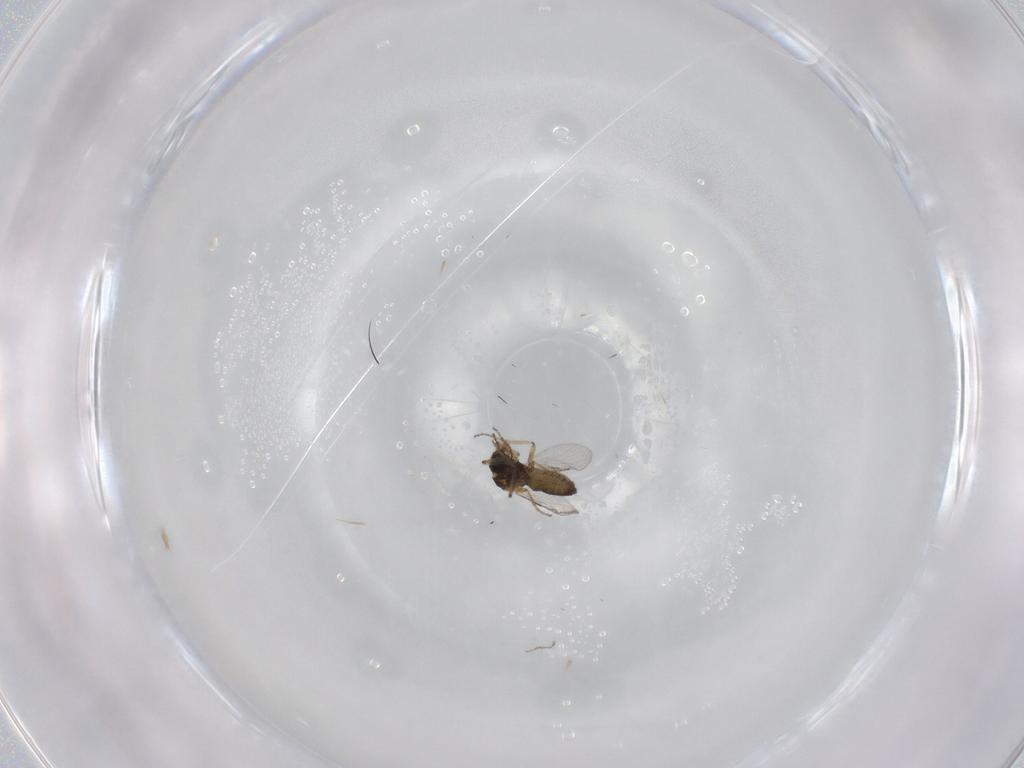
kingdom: Animalia
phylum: Arthropoda
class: Insecta
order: Diptera
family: Ceratopogonidae
